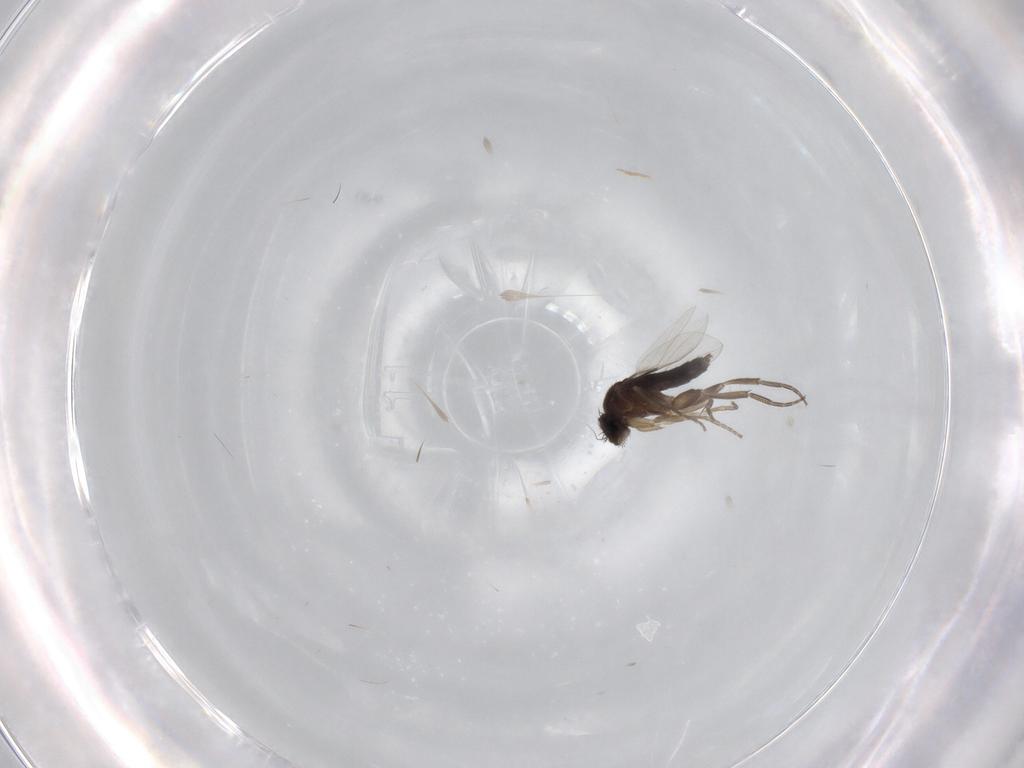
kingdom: Animalia
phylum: Arthropoda
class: Insecta
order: Diptera
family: Phoridae
